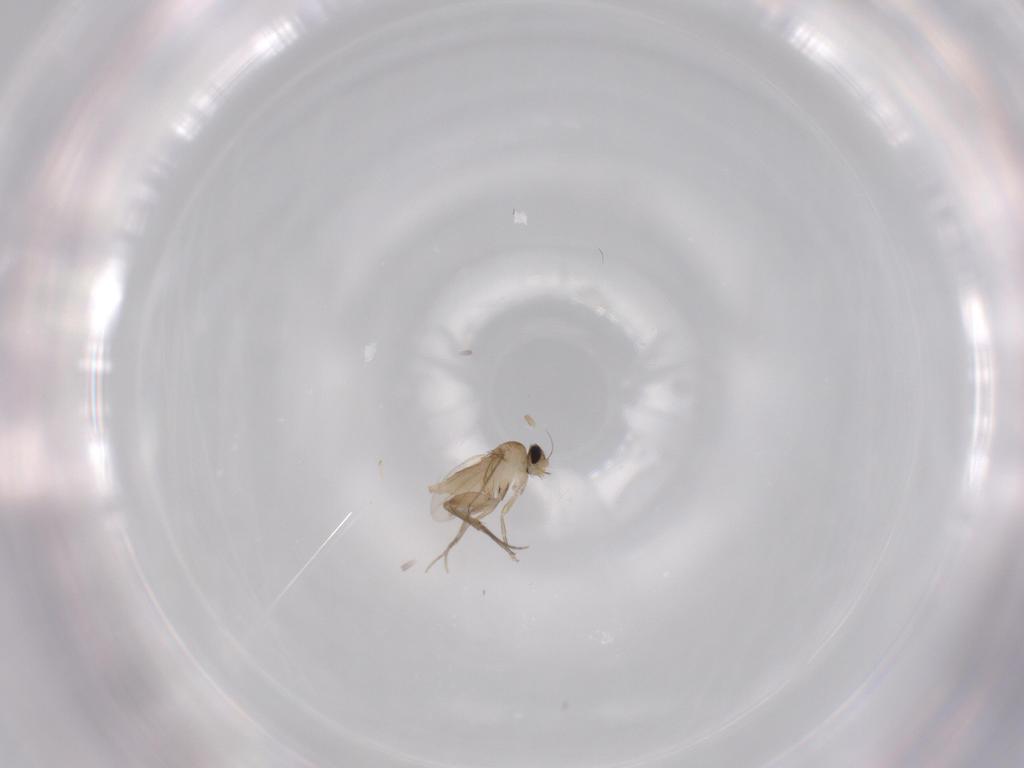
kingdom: Animalia
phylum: Arthropoda
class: Insecta
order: Diptera
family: Phoridae
